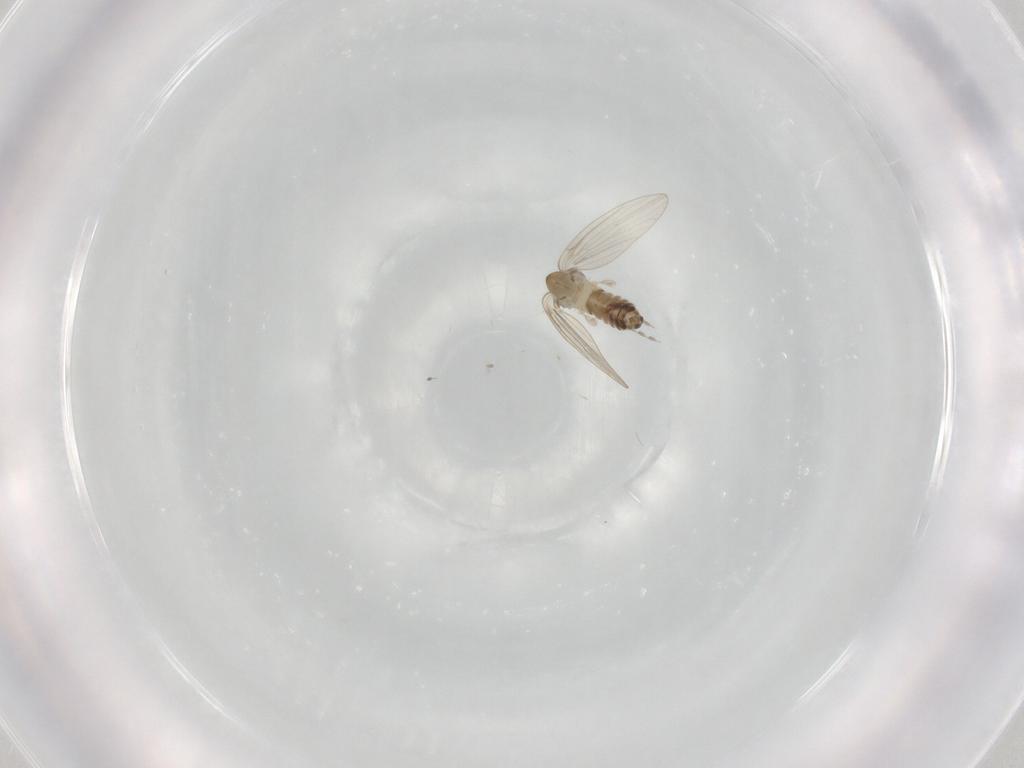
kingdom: Animalia
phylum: Arthropoda
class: Insecta
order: Diptera
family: Psychodidae
